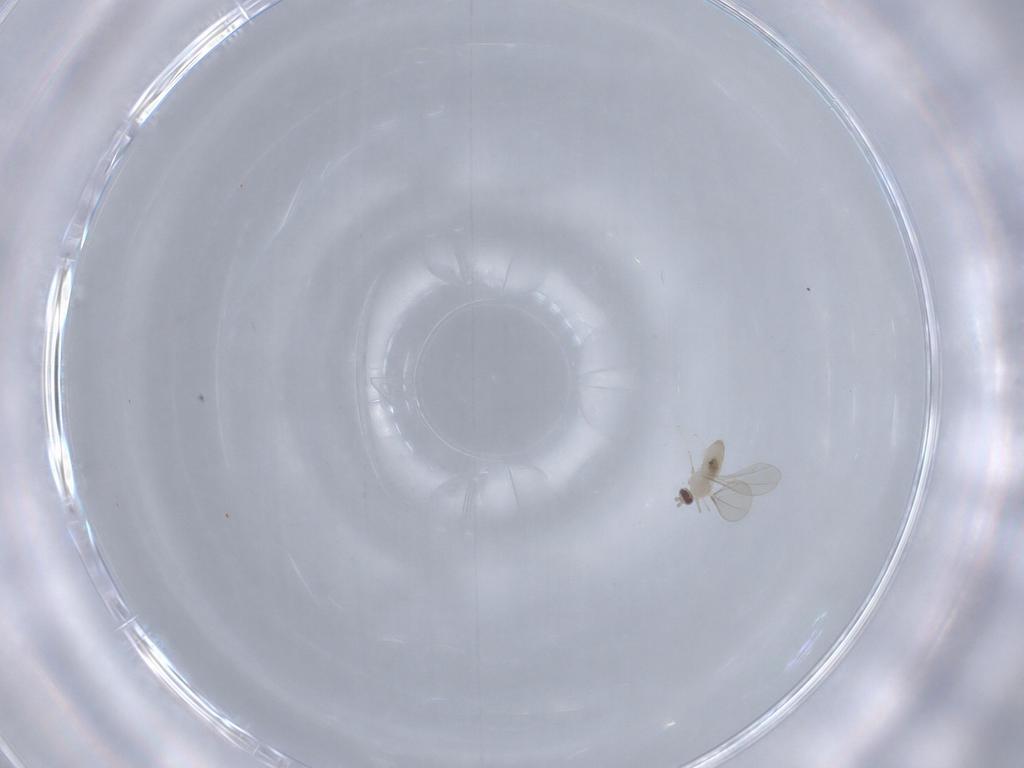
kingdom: Animalia
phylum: Arthropoda
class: Insecta
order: Diptera
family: Cecidomyiidae
